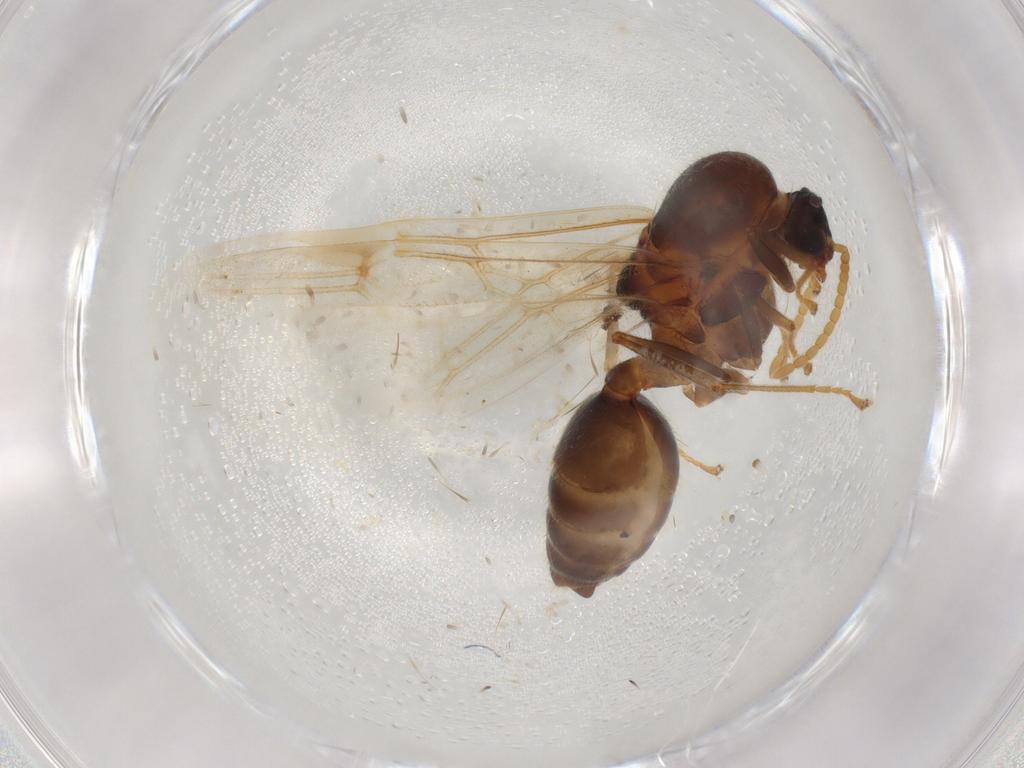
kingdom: Animalia
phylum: Arthropoda
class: Insecta
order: Hymenoptera
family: Formicidae
